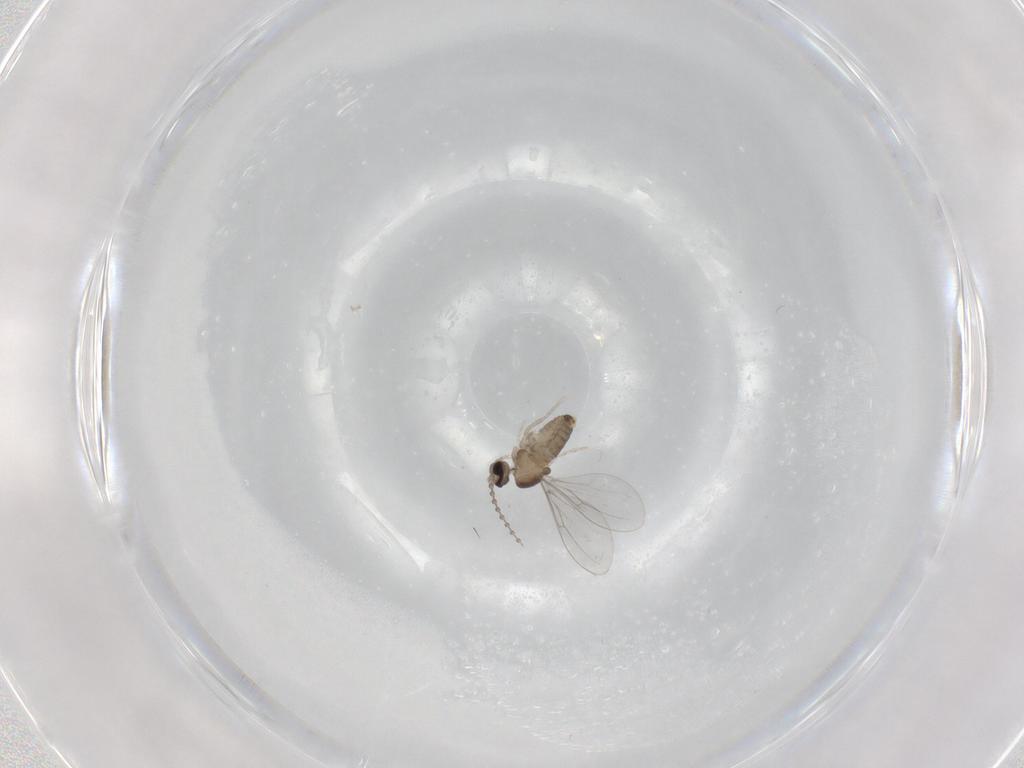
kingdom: Animalia
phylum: Arthropoda
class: Insecta
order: Diptera
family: Cecidomyiidae
